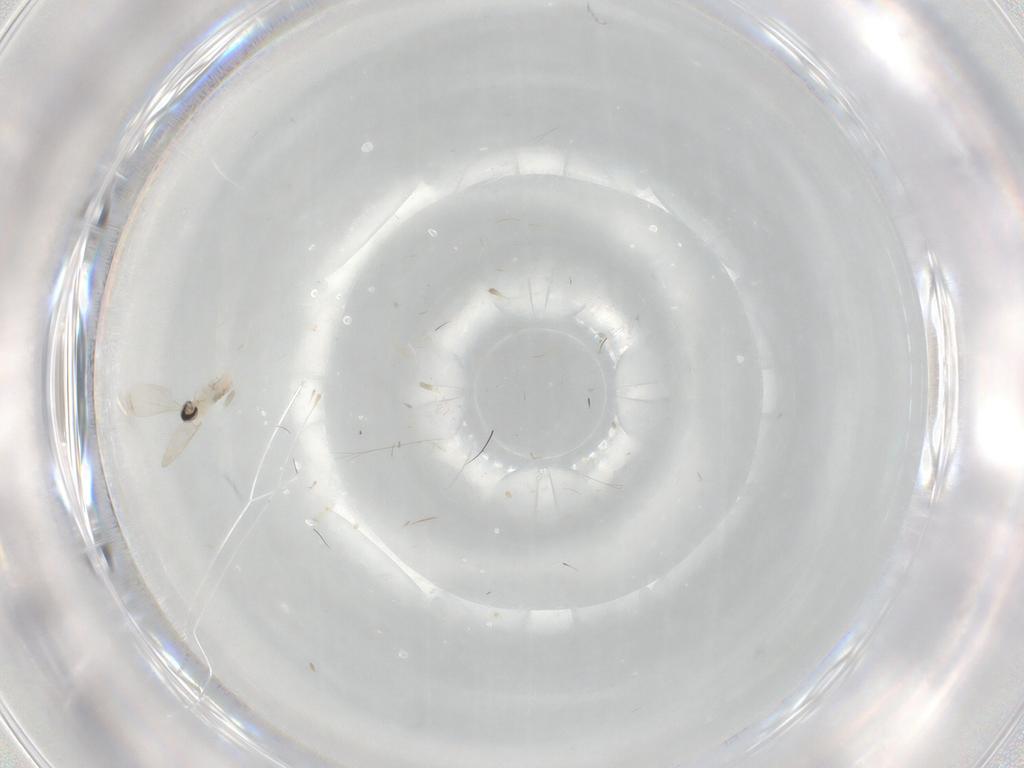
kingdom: Animalia
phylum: Arthropoda
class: Insecta
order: Diptera
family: Cecidomyiidae
